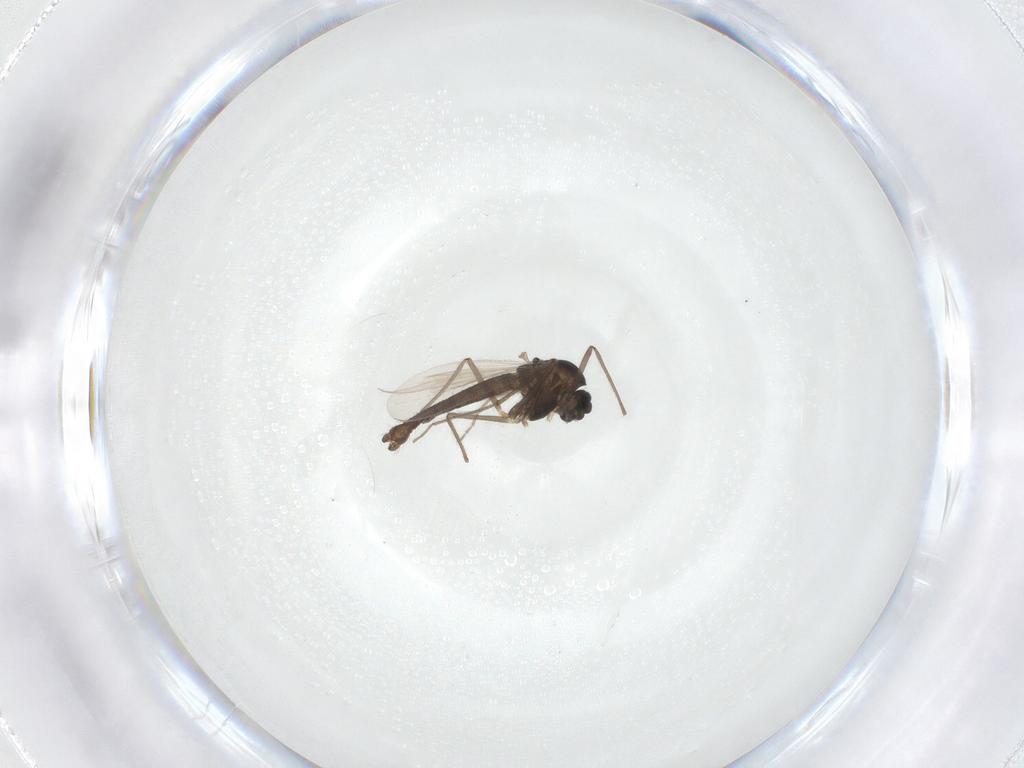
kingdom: Animalia
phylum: Arthropoda
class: Insecta
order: Diptera
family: Chironomidae
